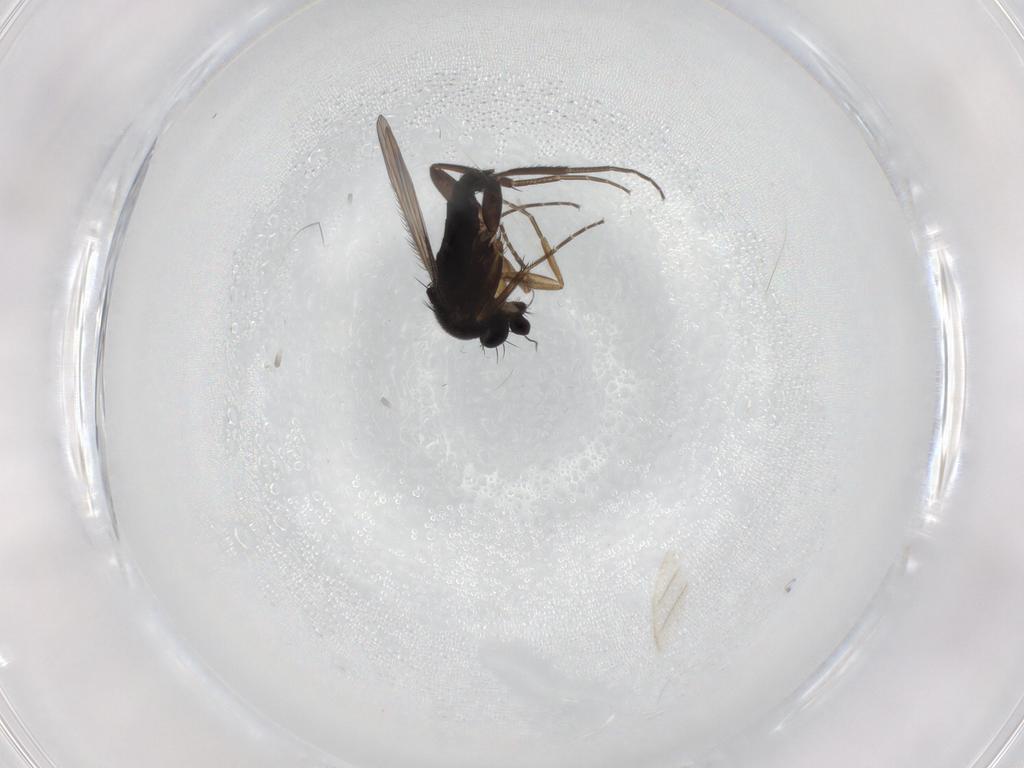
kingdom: Animalia
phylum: Arthropoda
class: Insecta
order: Diptera
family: Phoridae
